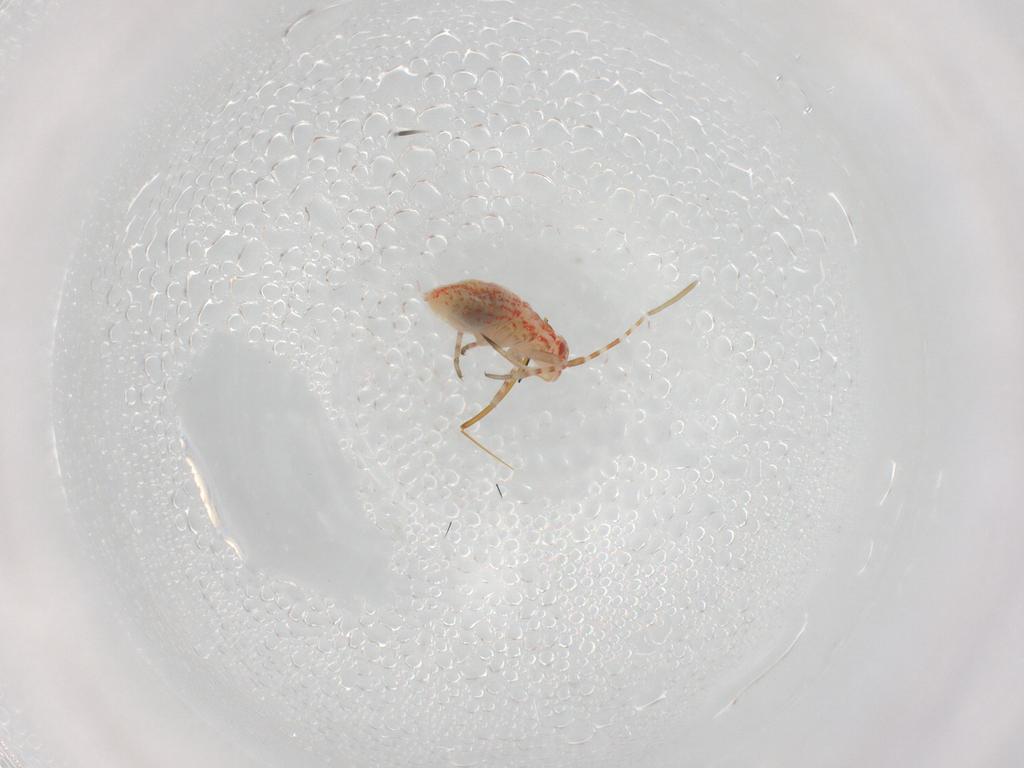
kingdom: Animalia
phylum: Arthropoda
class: Insecta
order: Hemiptera
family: Miridae
